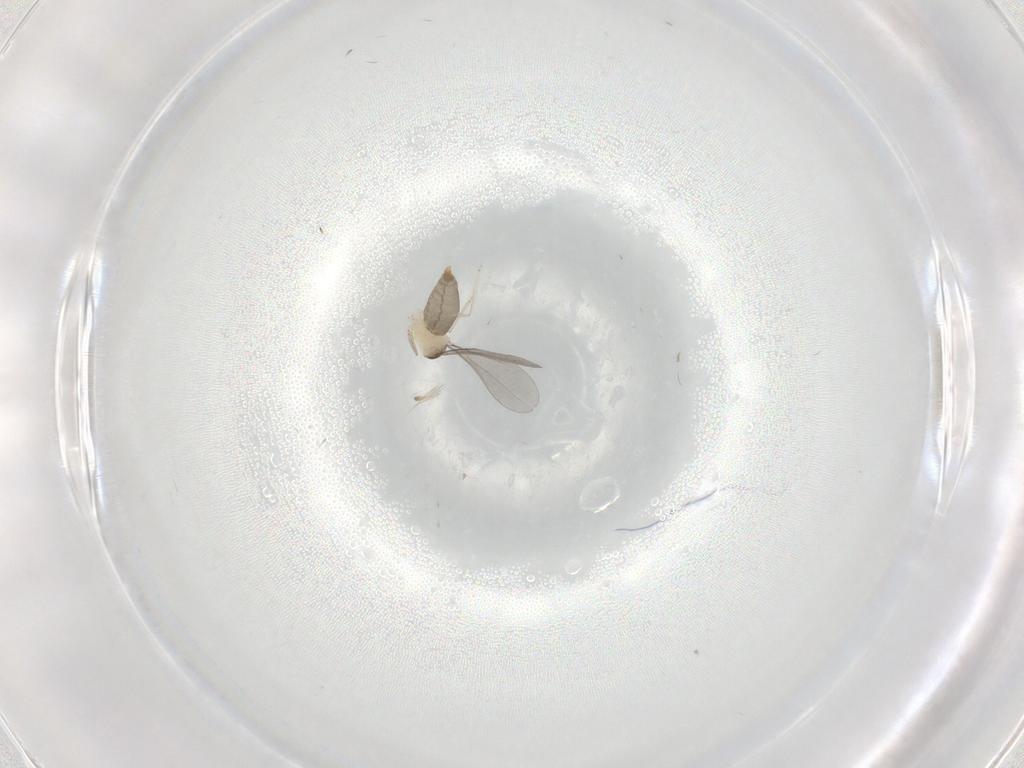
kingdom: Animalia
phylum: Arthropoda
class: Insecta
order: Diptera
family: Cecidomyiidae
